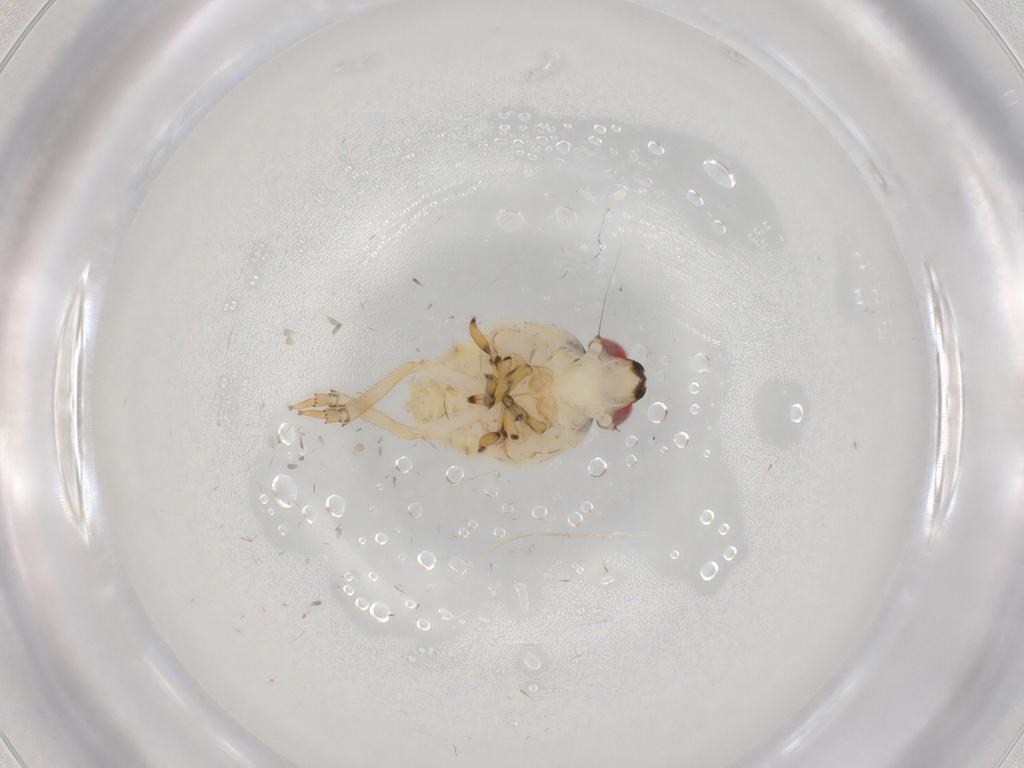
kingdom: Animalia
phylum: Arthropoda
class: Insecta
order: Hemiptera
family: Issidae
